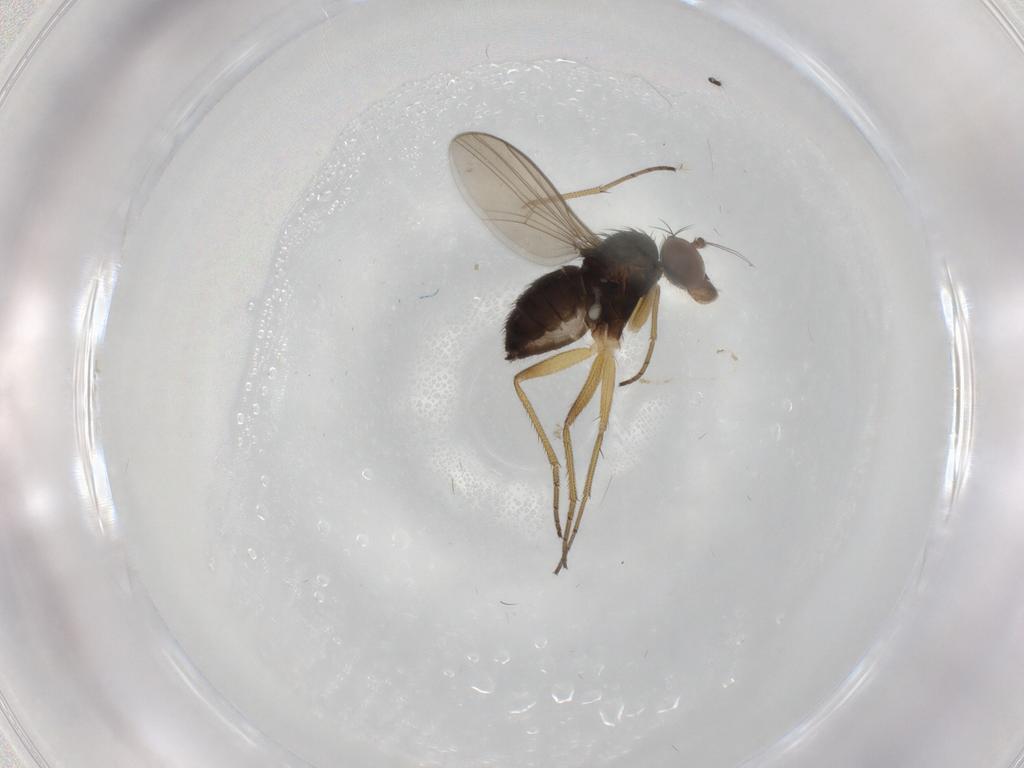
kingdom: Animalia
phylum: Arthropoda
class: Insecta
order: Diptera
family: Dolichopodidae
